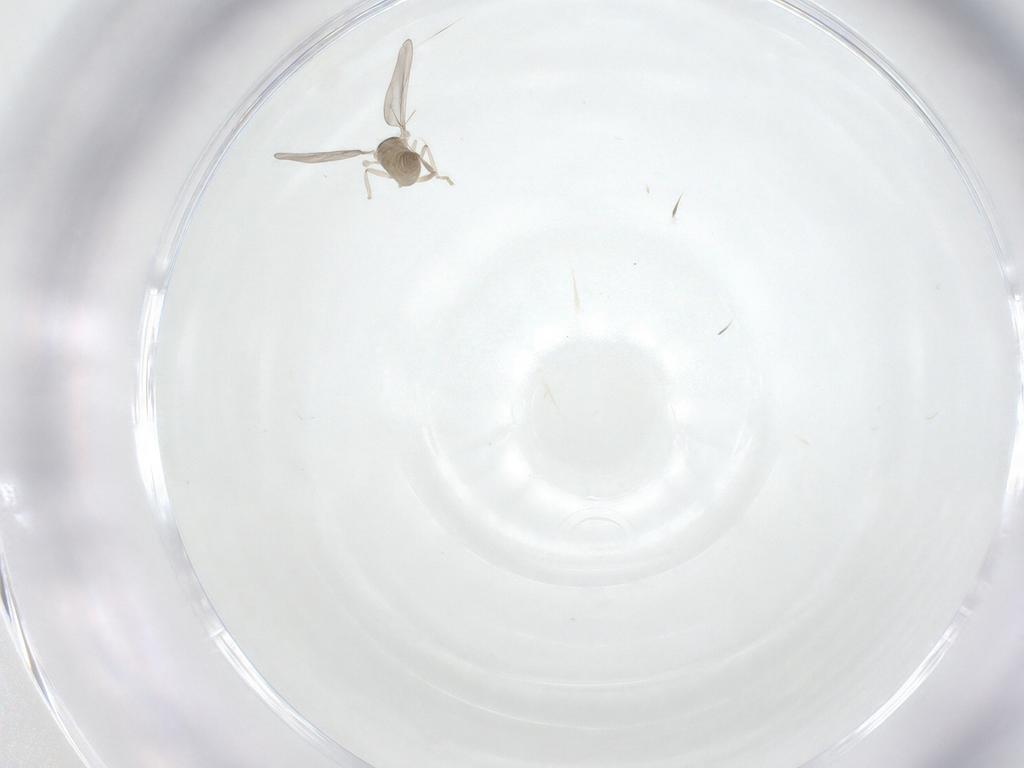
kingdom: Animalia
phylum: Arthropoda
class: Insecta
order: Diptera
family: Cecidomyiidae
